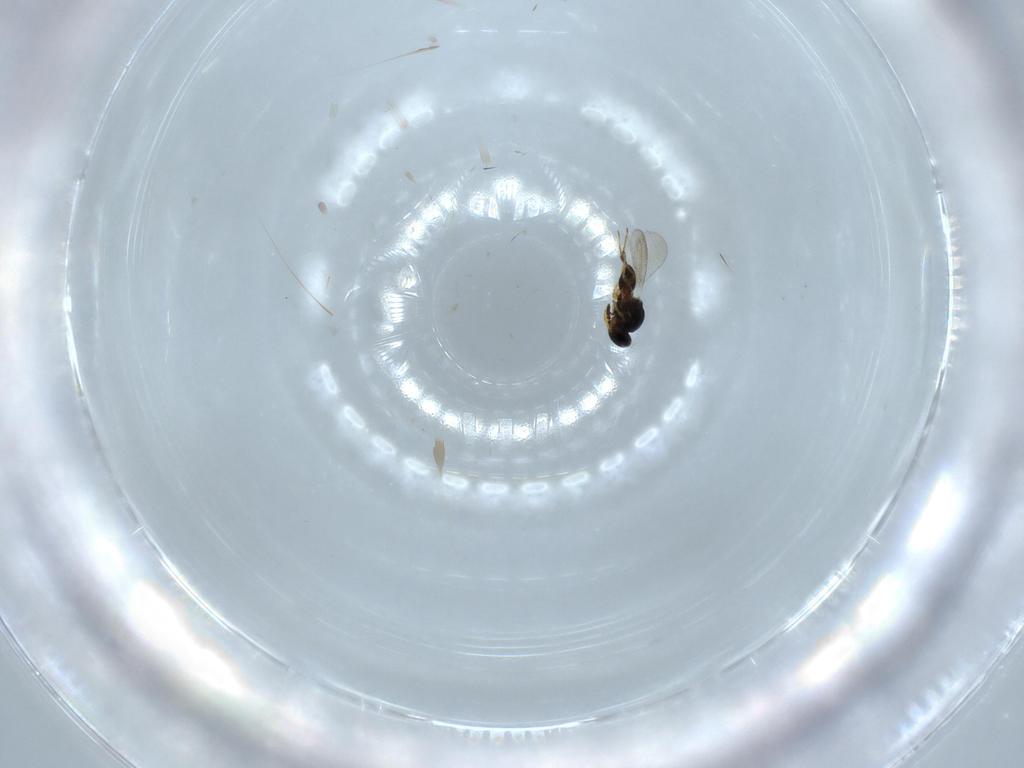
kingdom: Animalia
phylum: Arthropoda
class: Insecta
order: Hymenoptera
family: Platygastridae
